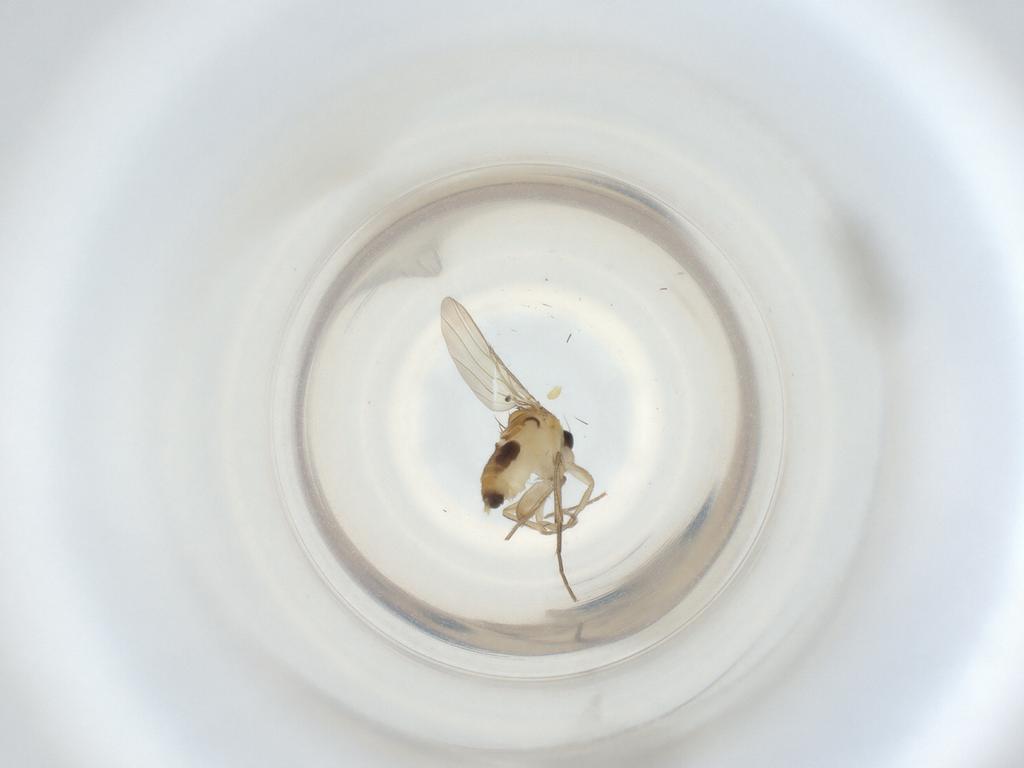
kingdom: Animalia
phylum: Arthropoda
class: Insecta
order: Diptera
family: Phoridae
